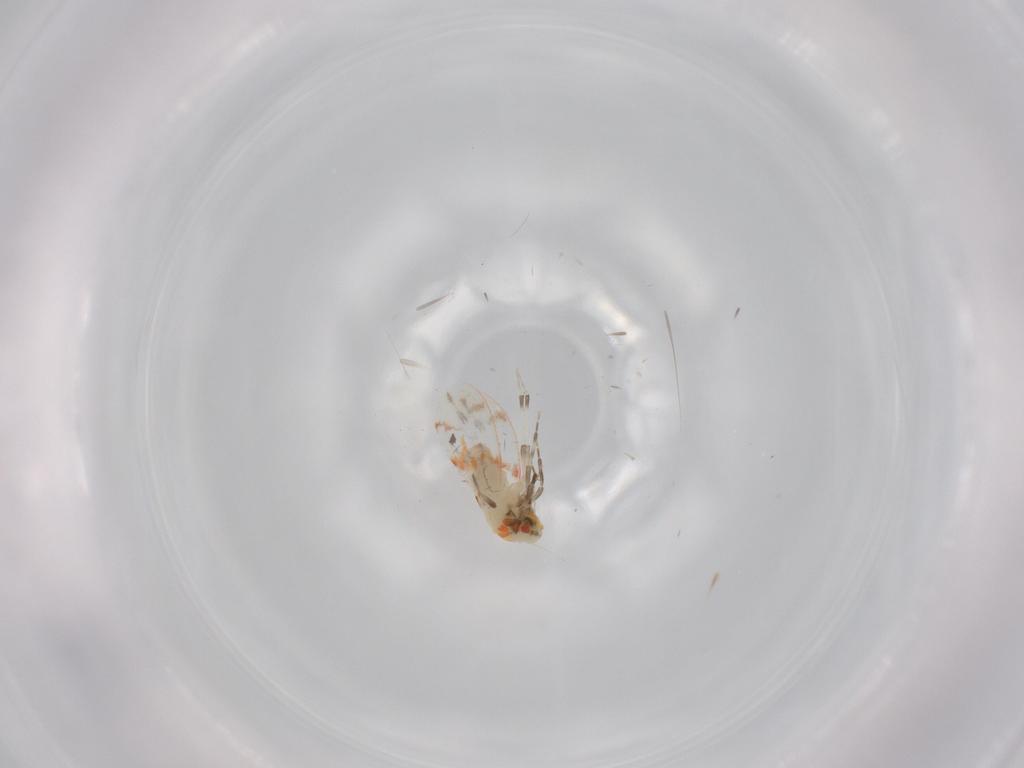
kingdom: Animalia
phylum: Arthropoda
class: Insecta
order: Hemiptera
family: Aleyrodidae
